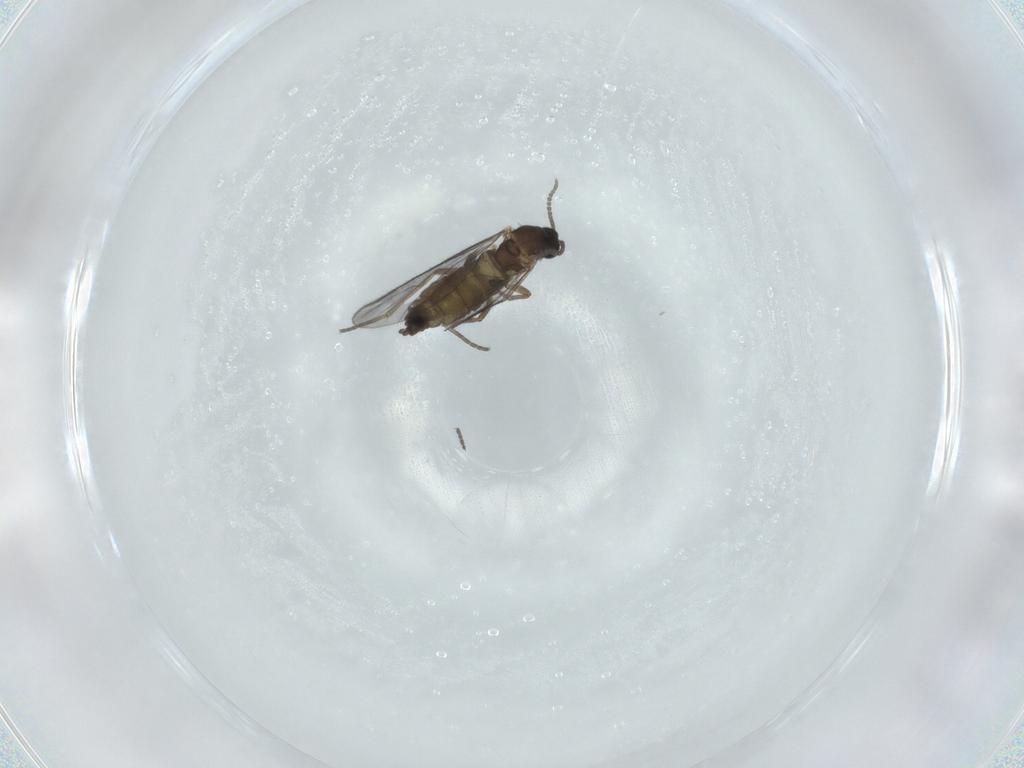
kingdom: Animalia
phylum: Arthropoda
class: Insecta
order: Diptera
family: Sciaridae
